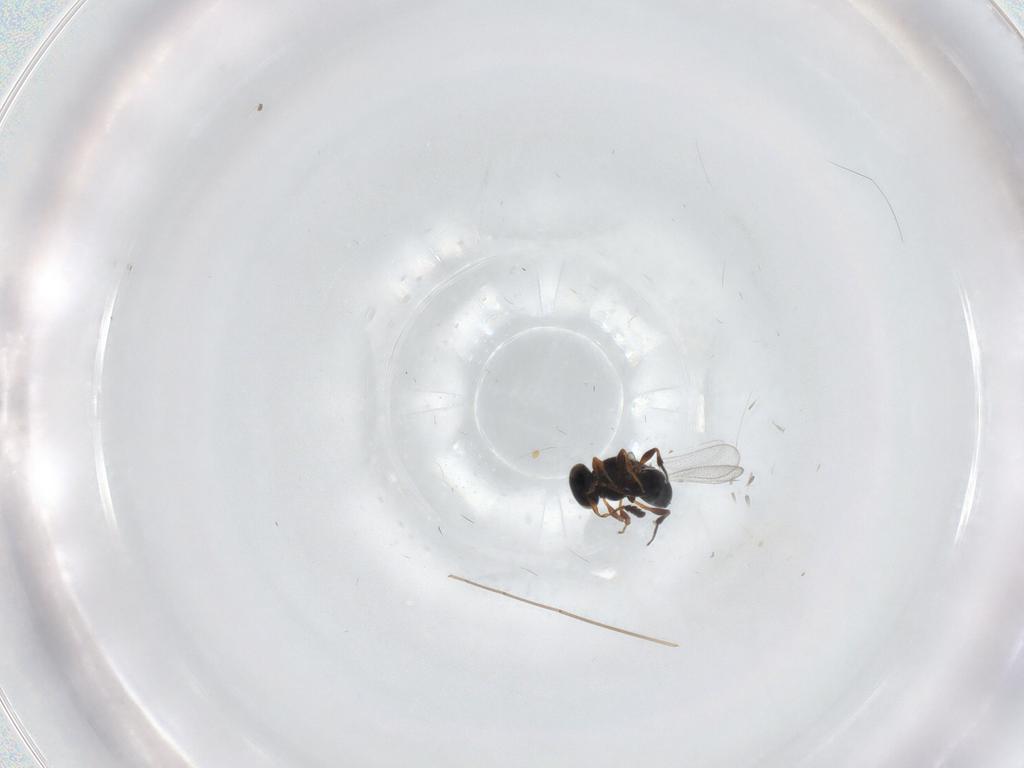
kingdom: Animalia
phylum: Arthropoda
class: Insecta
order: Hymenoptera
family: Platygastridae
